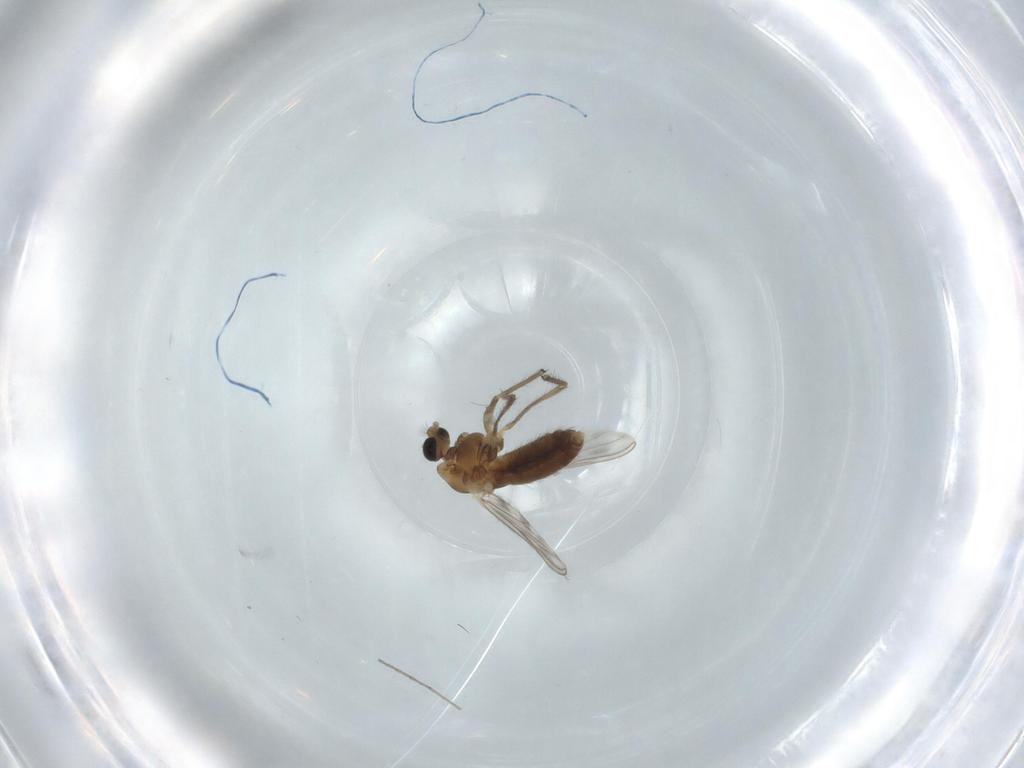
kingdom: Animalia
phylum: Arthropoda
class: Insecta
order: Diptera
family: Chironomidae
